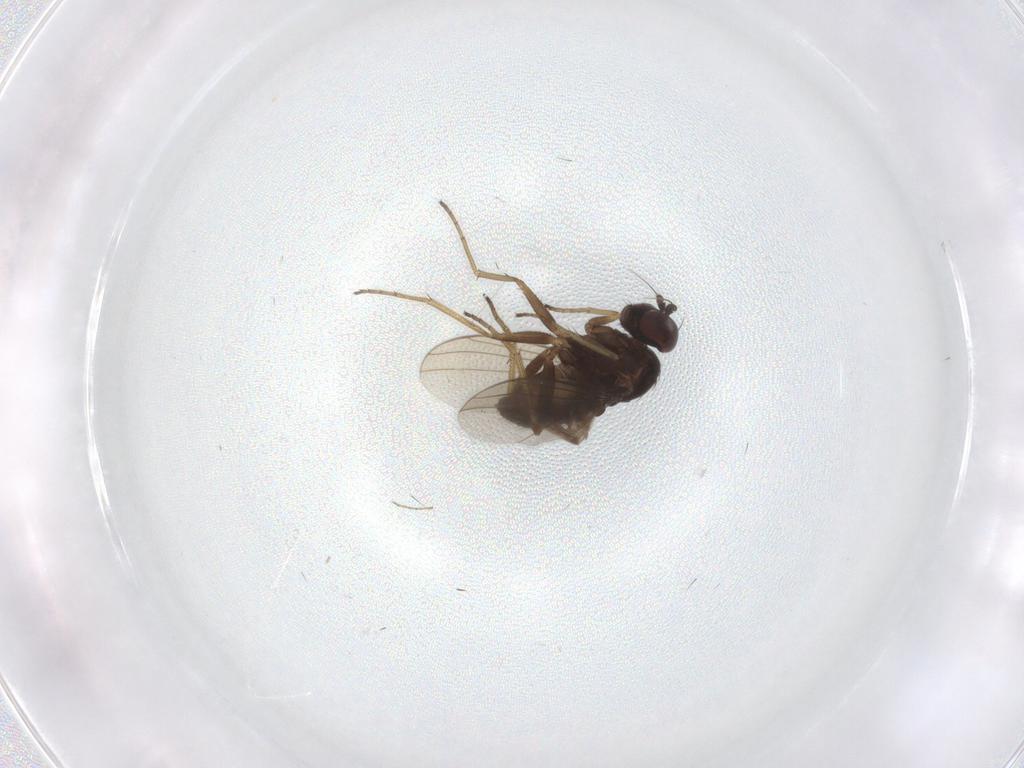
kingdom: Animalia
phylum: Arthropoda
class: Insecta
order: Diptera
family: Dolichopodidae
